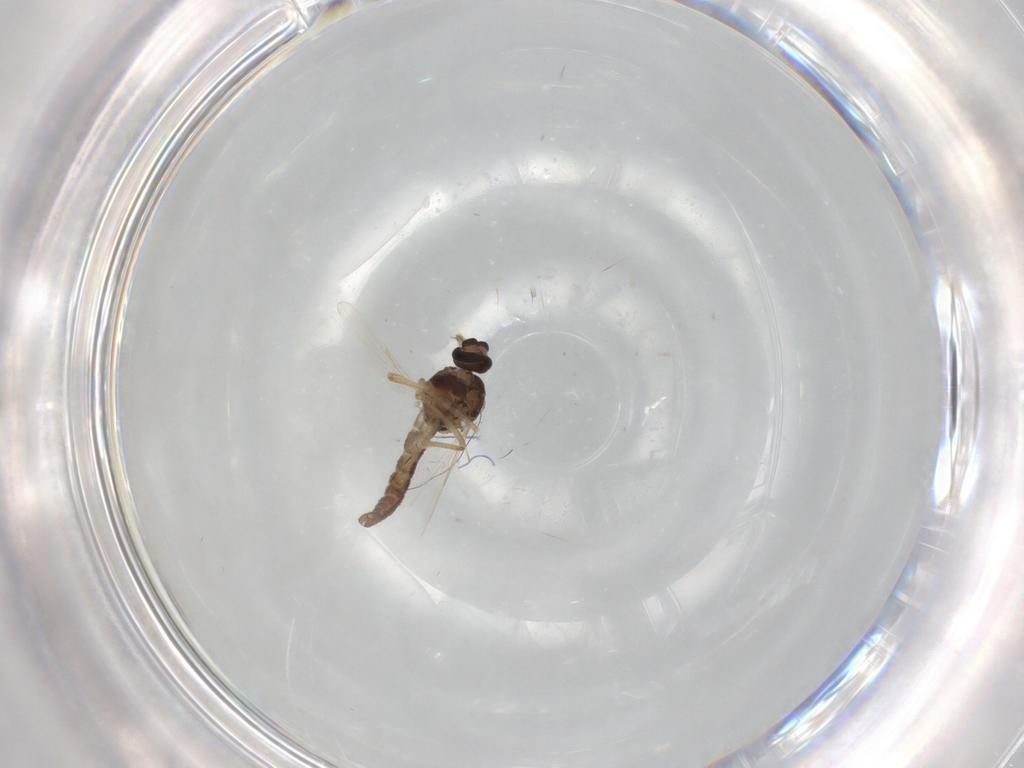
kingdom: Animalia
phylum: Arthropoda
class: Insecta
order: Diptera
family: Ceratopogonidae
